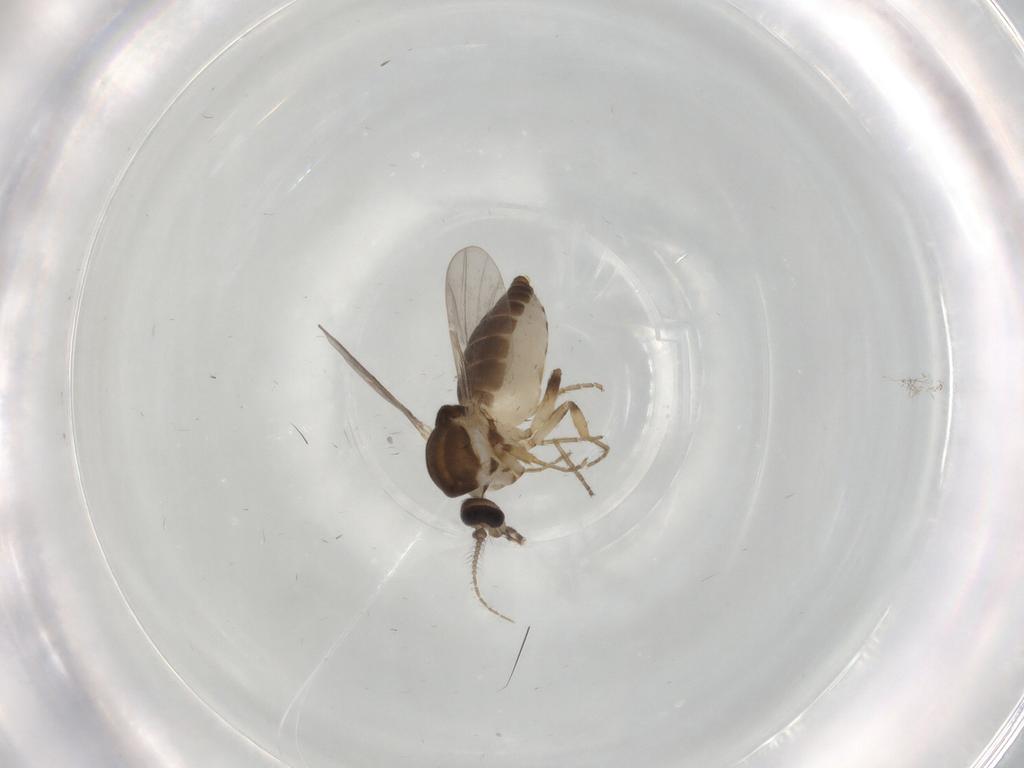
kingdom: Animalia
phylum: Arthropoda
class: Insecta
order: Diptera
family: Ceratopogonidae
